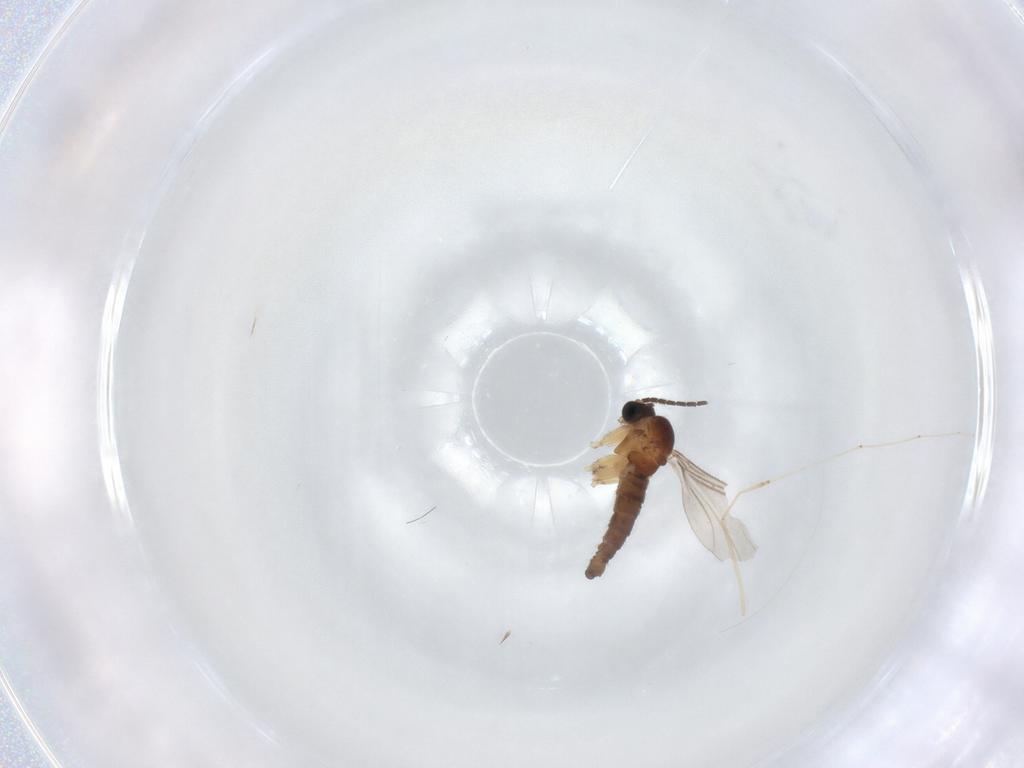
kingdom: Animalia
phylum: Arthropoda
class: Insecta
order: Diptera
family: Sciaridae
